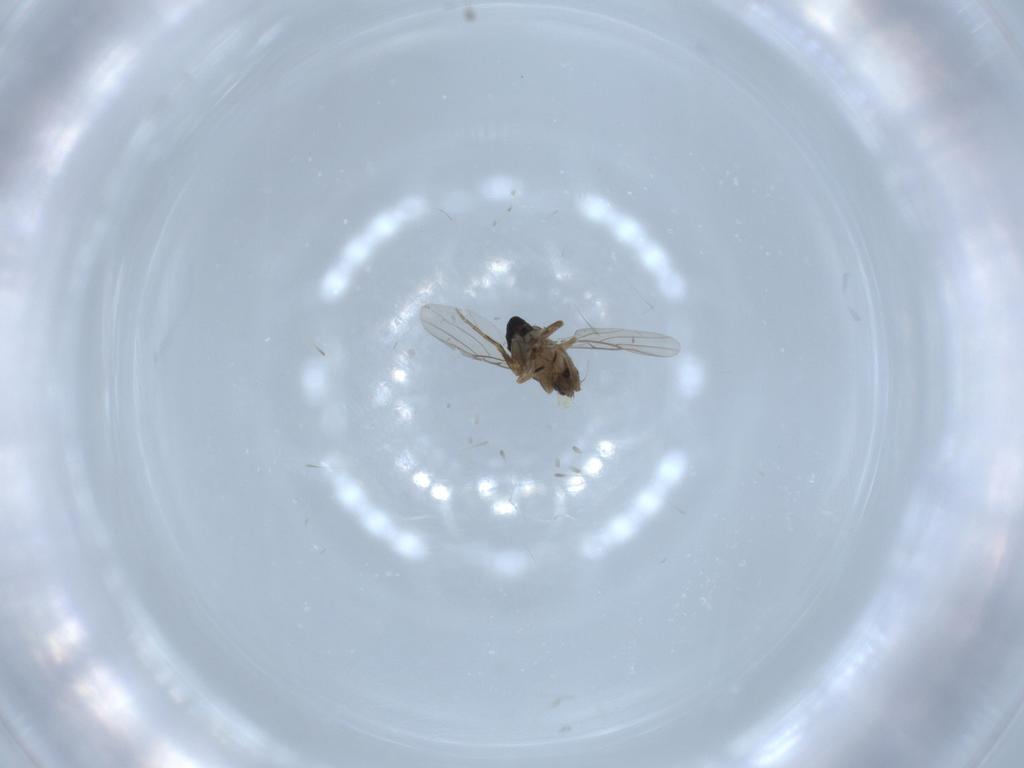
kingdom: Animalia
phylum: Arthropoda
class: Insecta
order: Diptera
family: Phoridae
